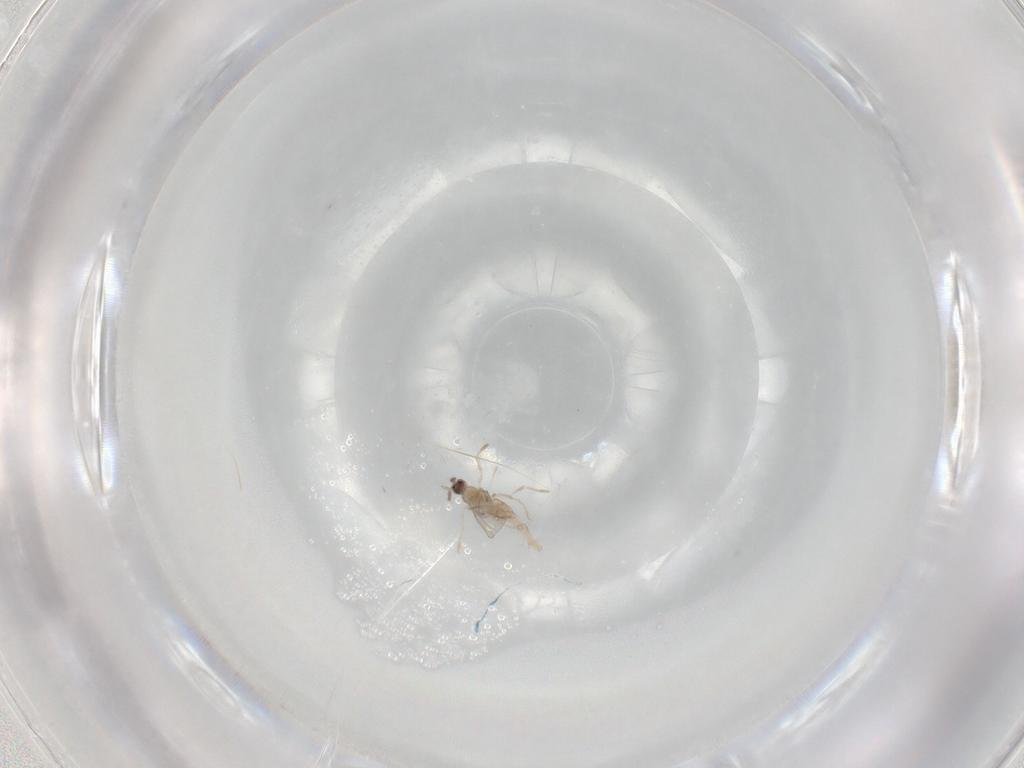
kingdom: Animalia
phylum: Arthropoda
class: Insecta
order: Diptera
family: Cecidomyiidae
